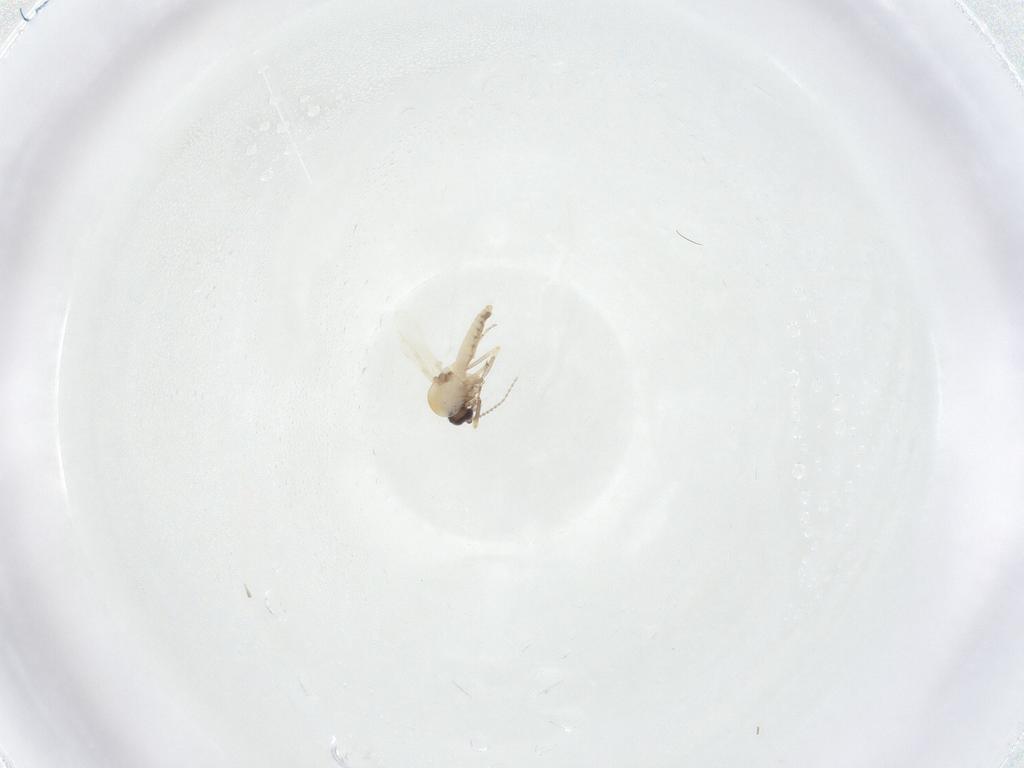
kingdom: Animalia
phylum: Arthropoda
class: Insecta
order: Diptera
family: Ceratopogonidae
